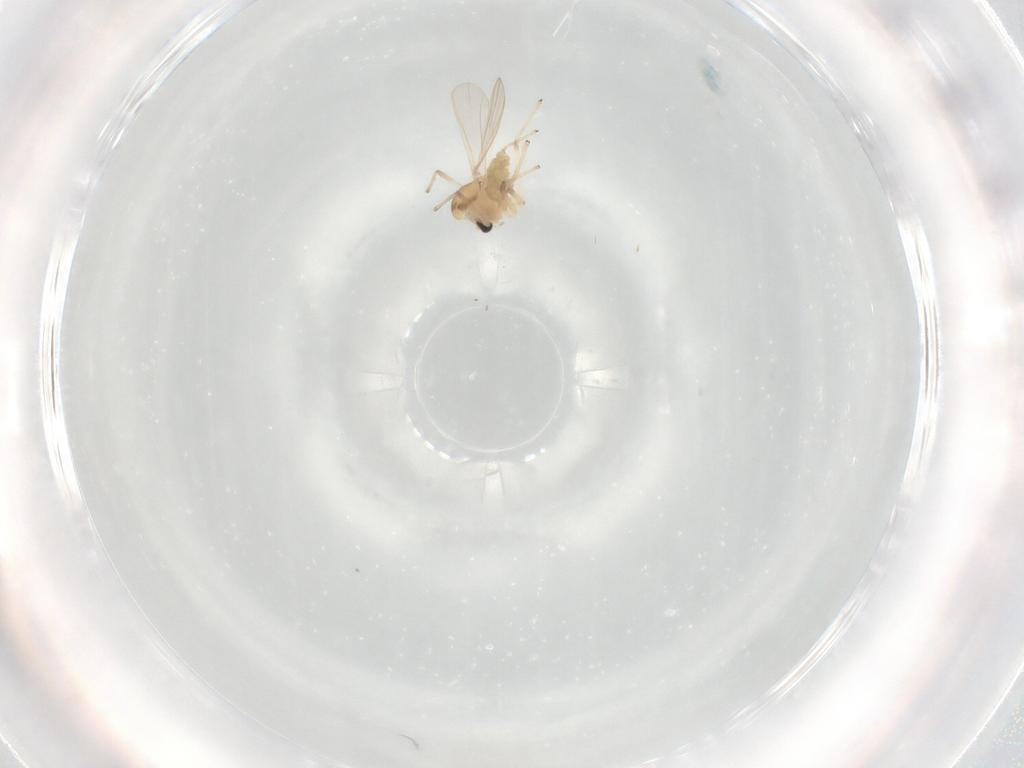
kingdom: Animalia
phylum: Arthropoda
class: Insecta
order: Diptera
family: Chironomidae
